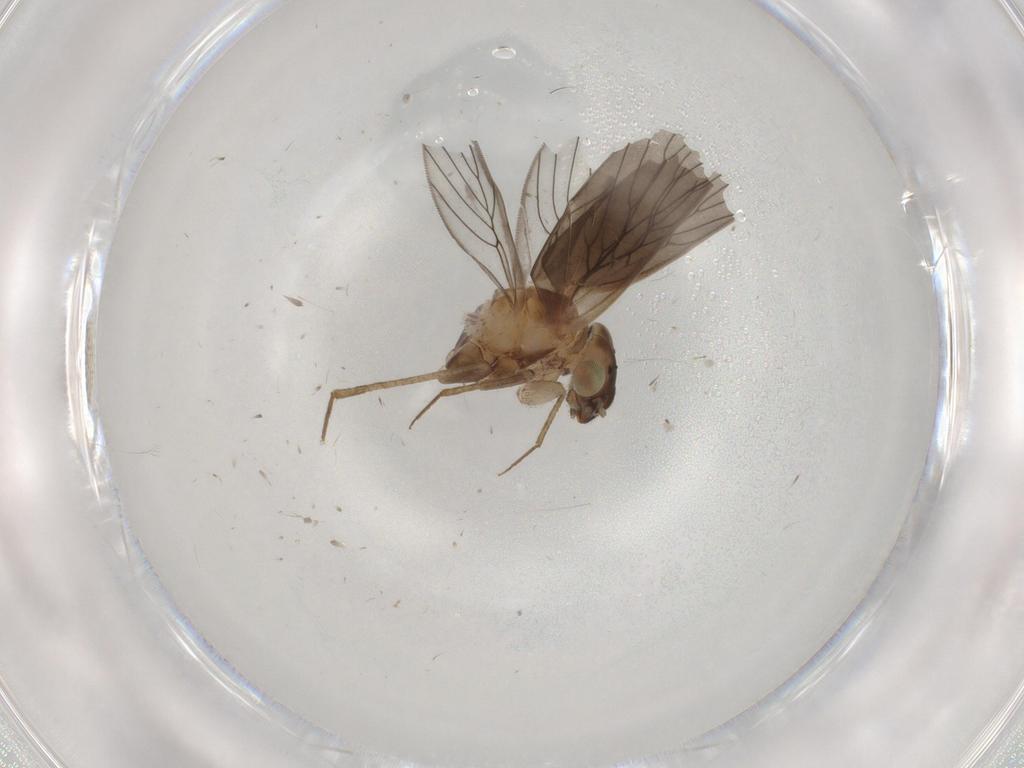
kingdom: Animalia
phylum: Arthropoda
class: Insecta
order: Psocodea
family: Lepidopsocidae
